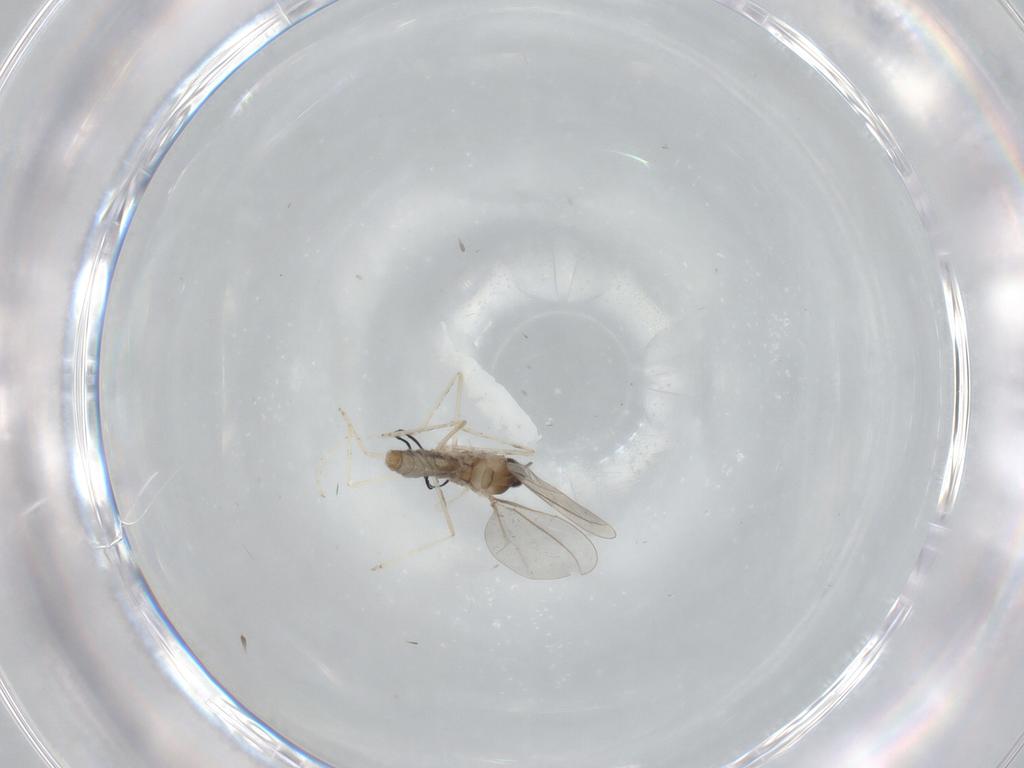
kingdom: Animalia
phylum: Arthropoda
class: Insecta
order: Diptera
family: Cecidomyiidae
